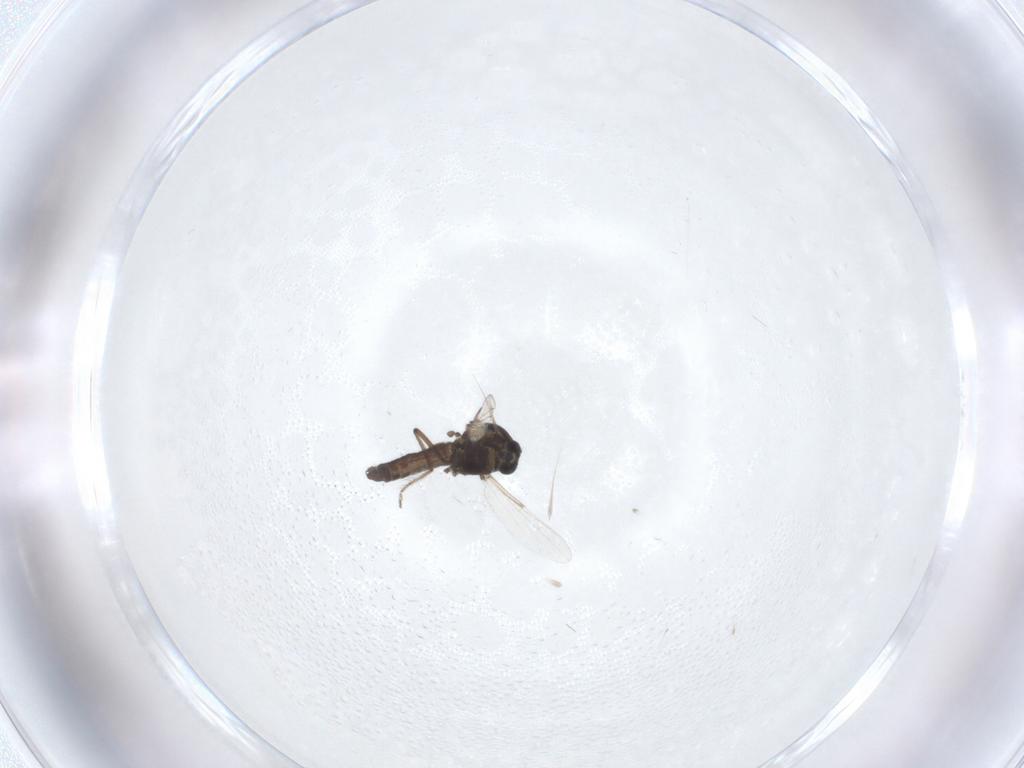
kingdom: Animalia
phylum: Arthropoda
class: Insecta
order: Diptera
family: Ceratopogonidae
